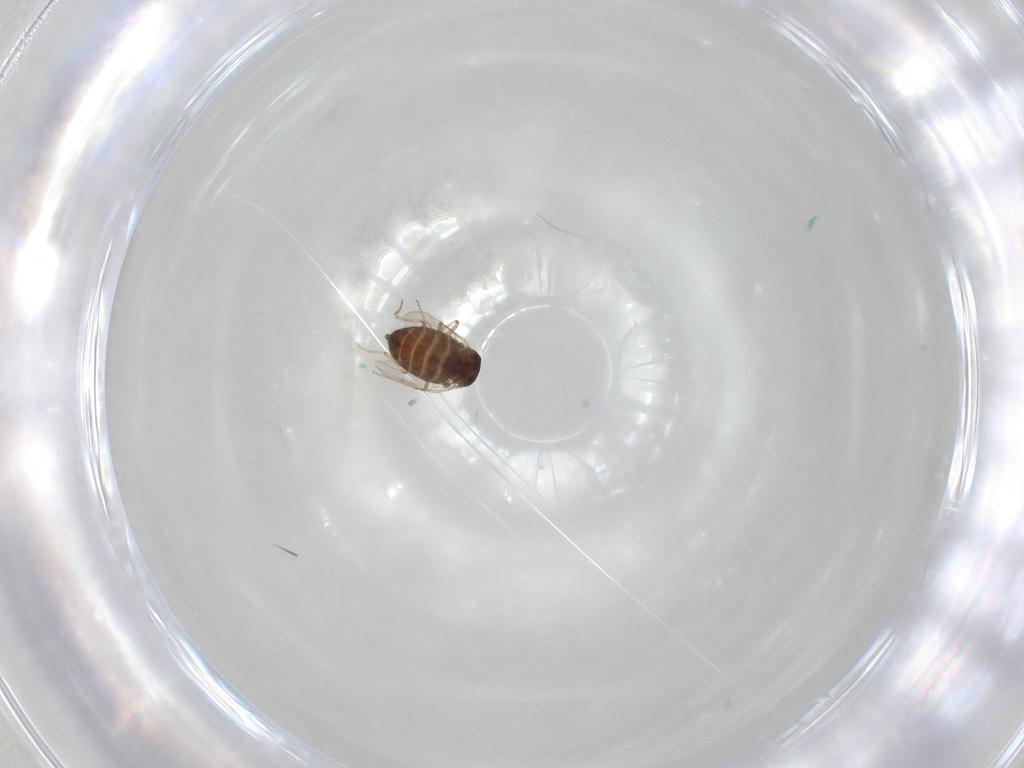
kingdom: Animalia
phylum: Arthropoda
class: Insecta
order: Diptera
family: Ceratopogonidae
